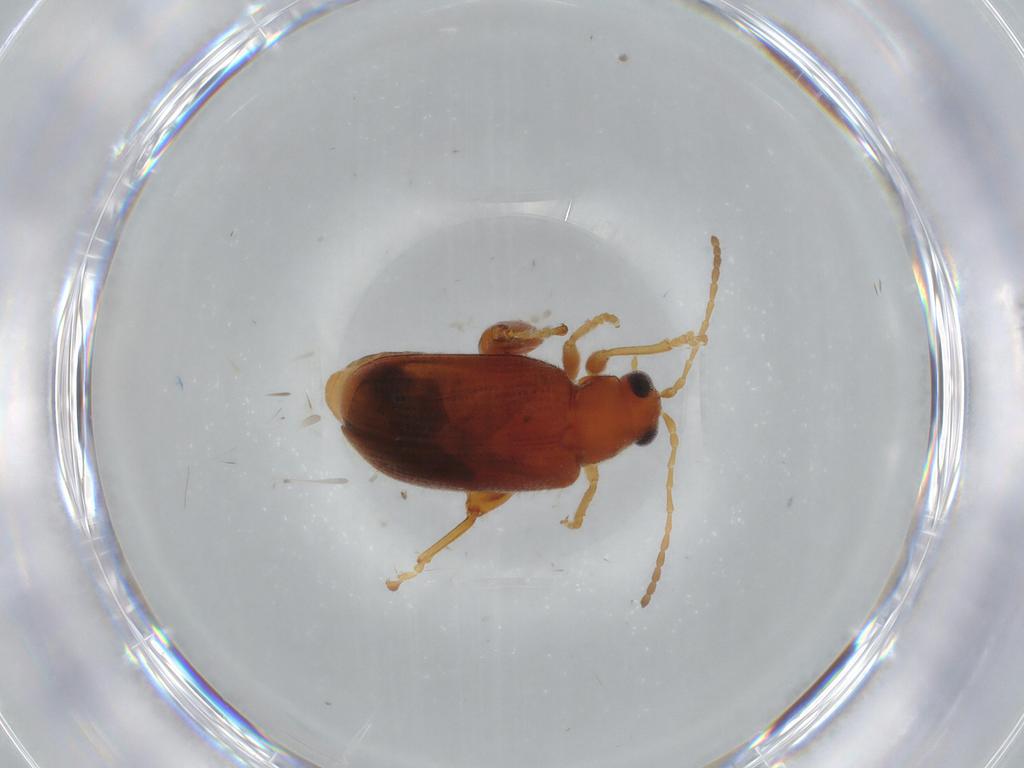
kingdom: Animalia
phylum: Arthropoda
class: Insecta
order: Coleoptera
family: Chrysomelidae
